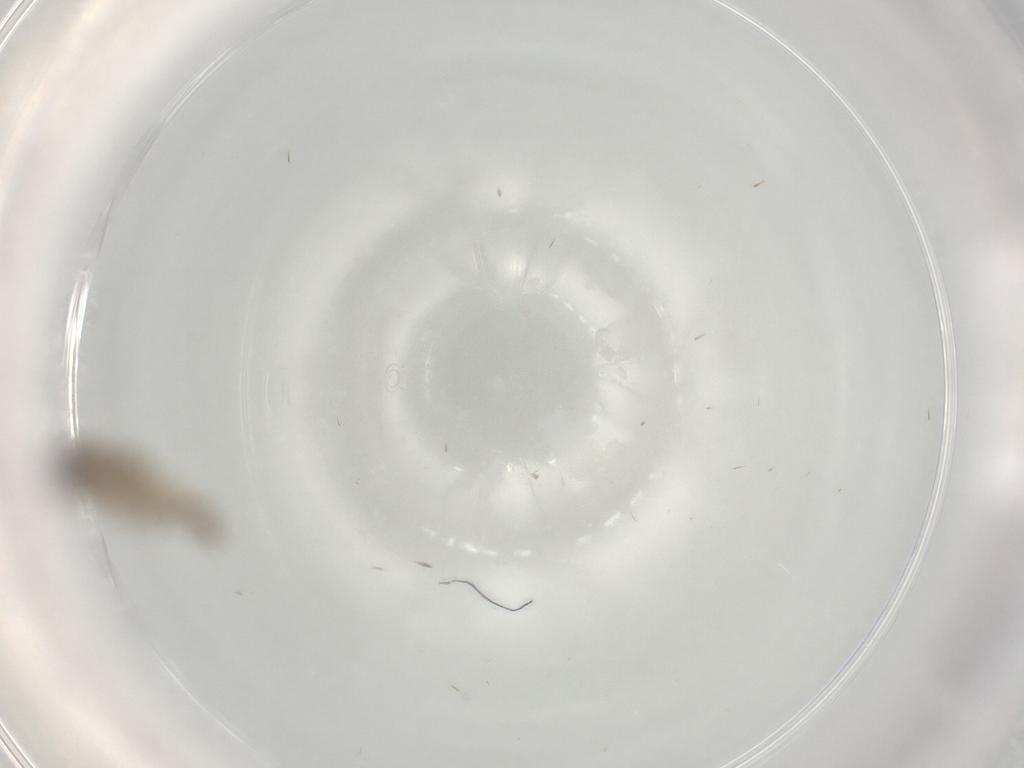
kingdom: Animalia
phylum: Arthropoda
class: Insecta
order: Diptera
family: Cecidomyiidae
